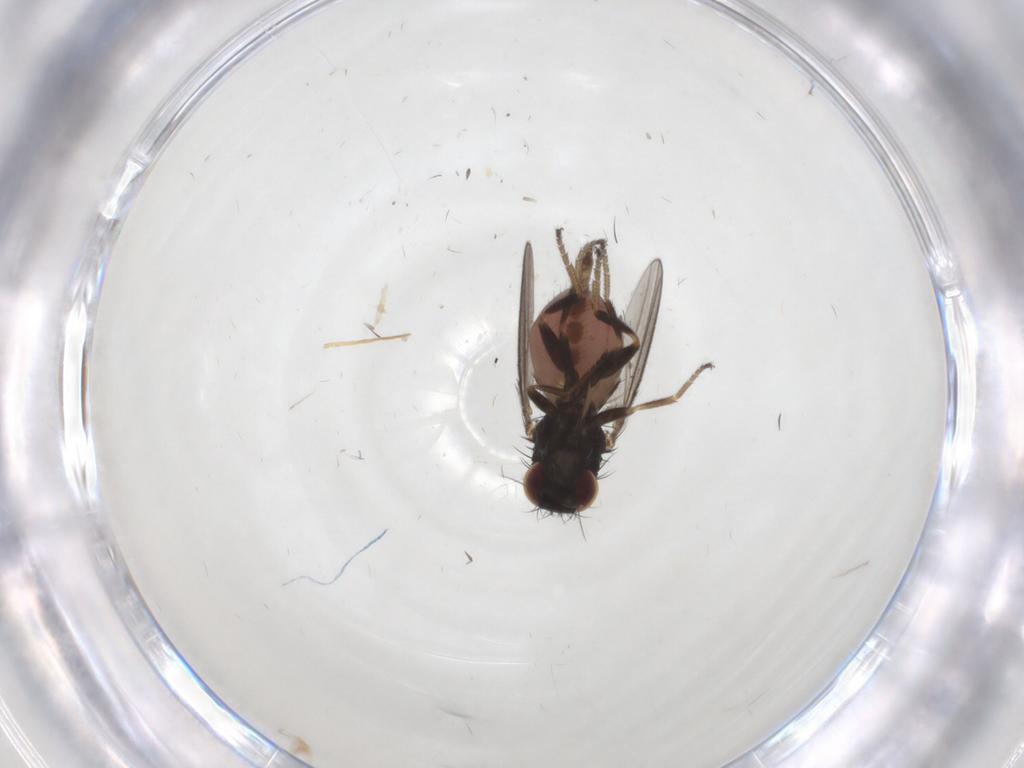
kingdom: Animalia
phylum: Arthropoda
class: Insecta
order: Diptera
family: Milichiidae
